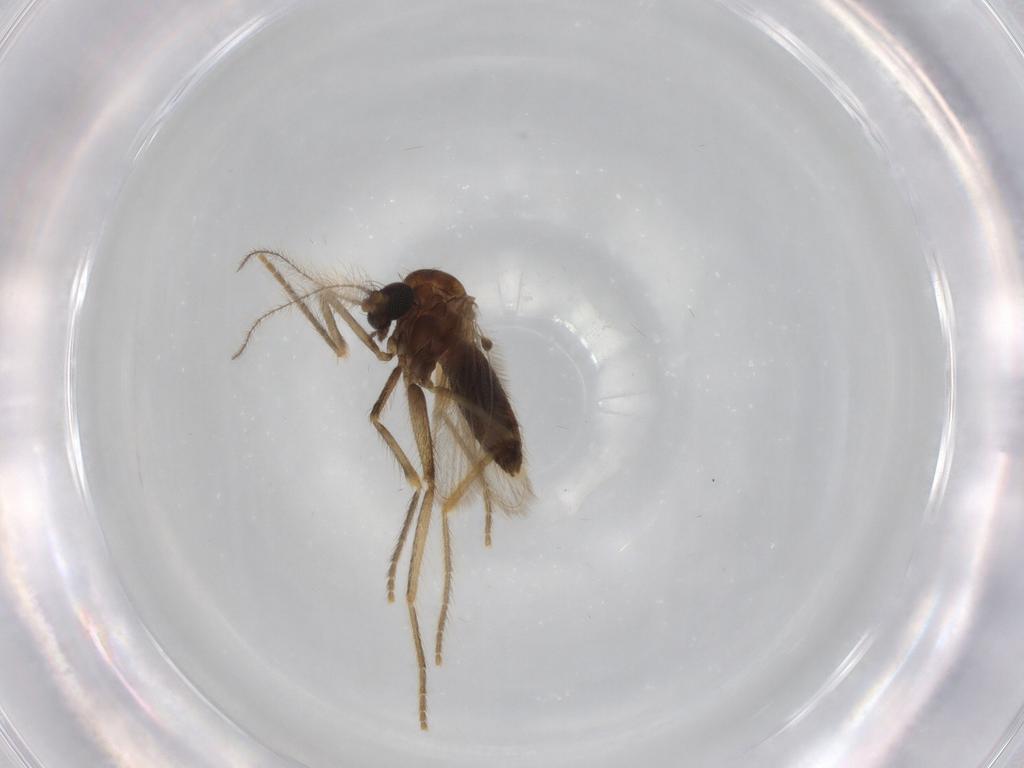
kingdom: Animalia
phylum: Arthropoda
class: Insecta
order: Diptera
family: Corethrellidae
